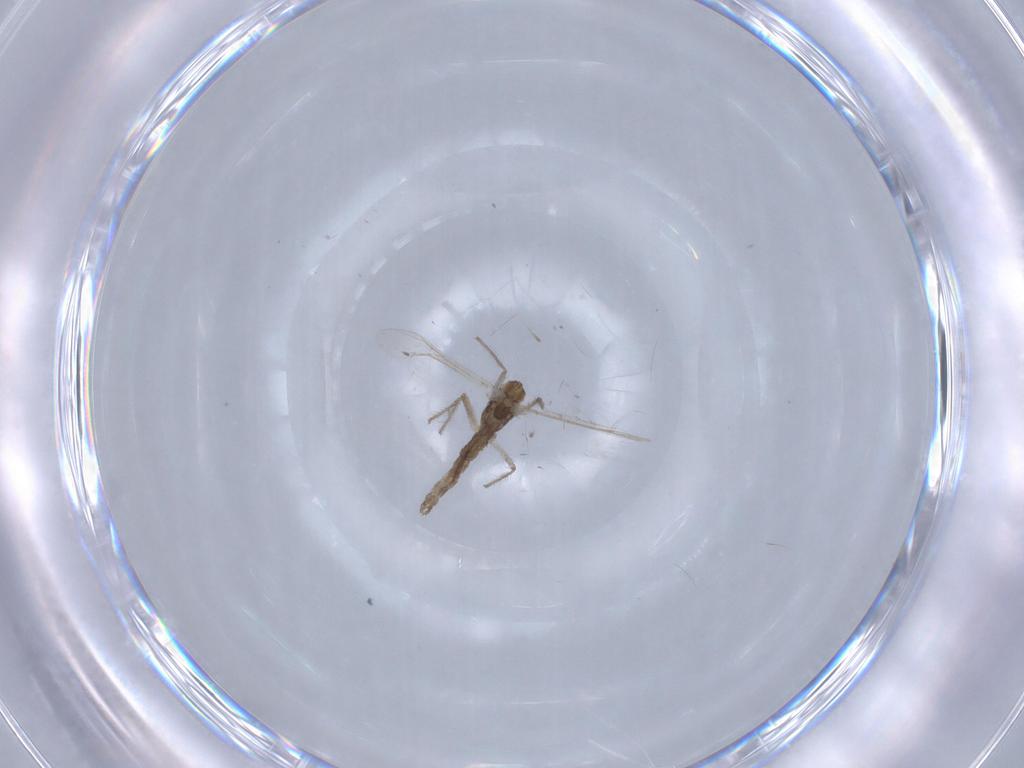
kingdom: Animalia
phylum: Arthropoda
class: Insecta
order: Diptera
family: Chironomidae
